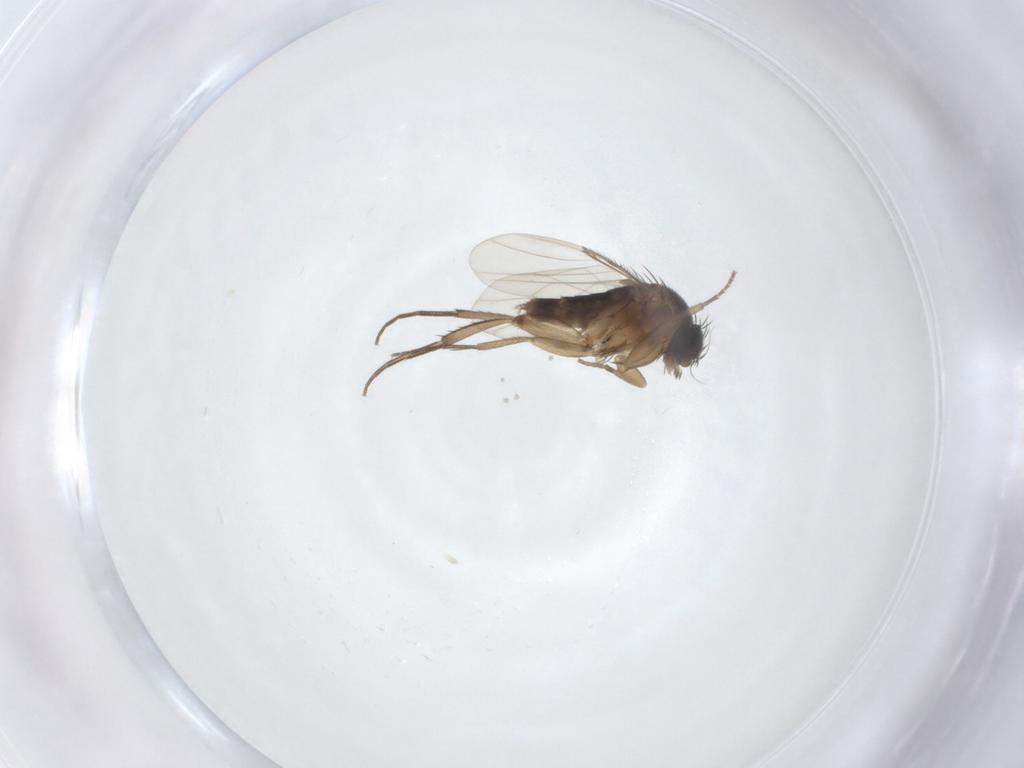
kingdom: Animalia
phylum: Arthropoda
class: Insecta
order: Diptera
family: Phoridae
